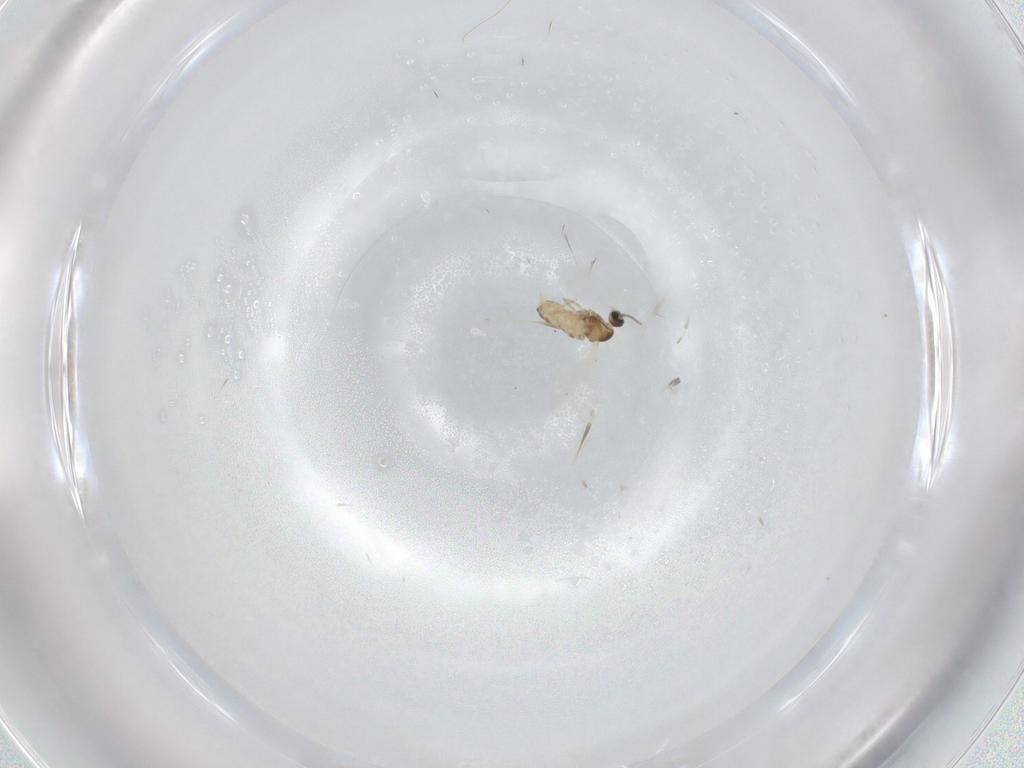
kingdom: Animalia
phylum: Arthropoda
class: Insecta
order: Diptera
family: Cecidomyiidae
